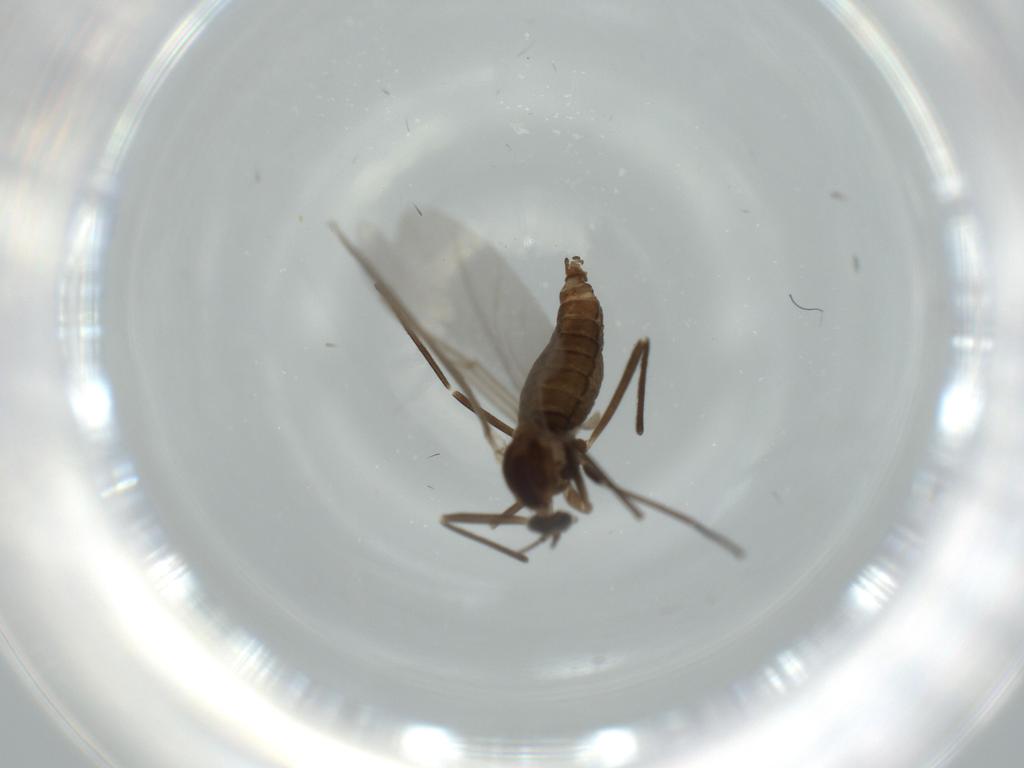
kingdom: Animalia
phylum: Arthropoda
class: Insecta
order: Diptera
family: Cecidomyiidae
